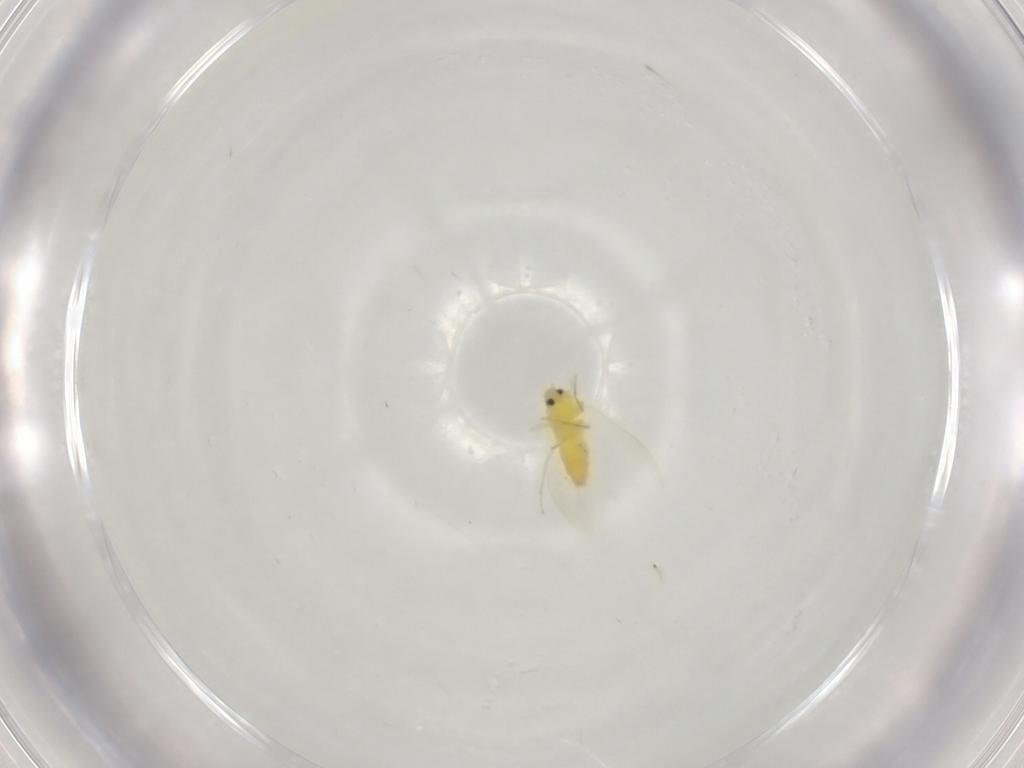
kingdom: Animalia
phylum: Arthropoda
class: Insecta
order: Hemiptera
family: Aleyrodidae
